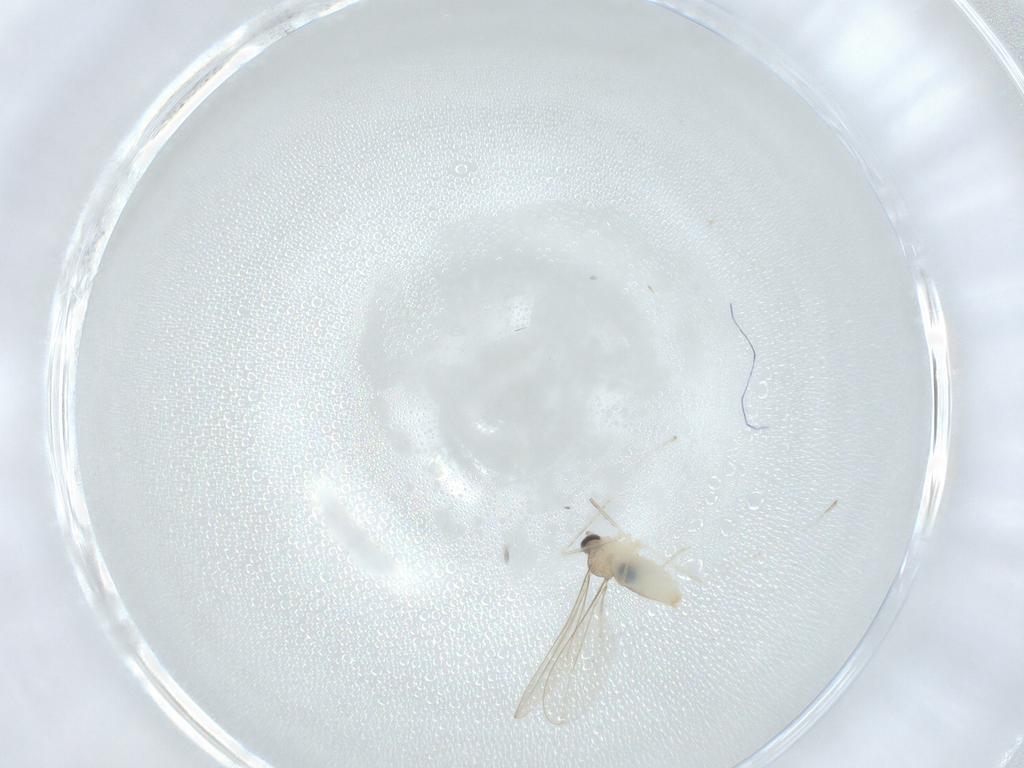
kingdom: Animalia
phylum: Arthropoda
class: Insecta
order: Diptera
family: Cecidomyiidae
